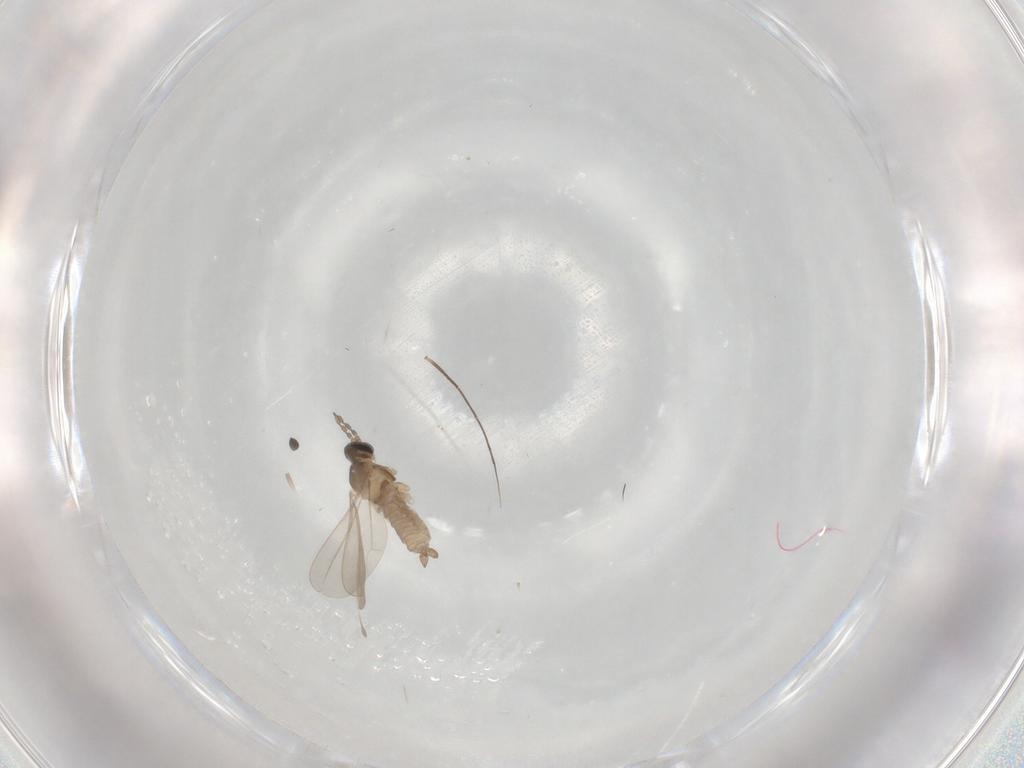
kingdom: Animalia
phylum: Arthropoda
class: Insecta
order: Diptera
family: Cecidomyiidae
